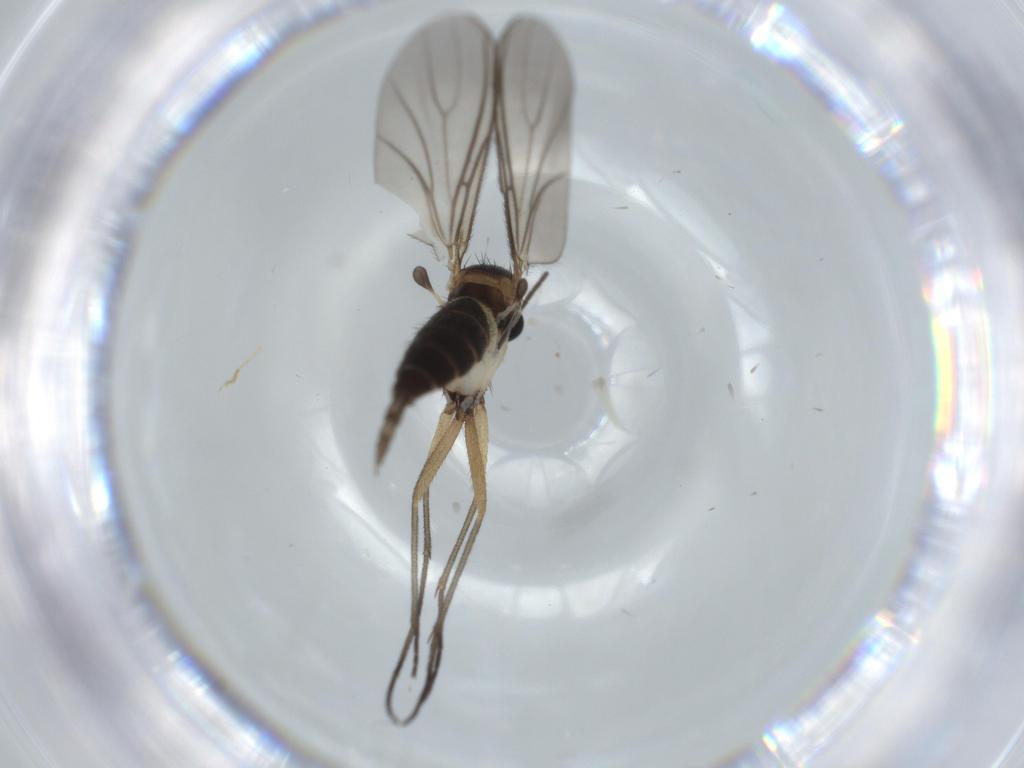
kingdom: Animalia
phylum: Arthropoda
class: Insecta
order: Diptera
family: Sciaridae
